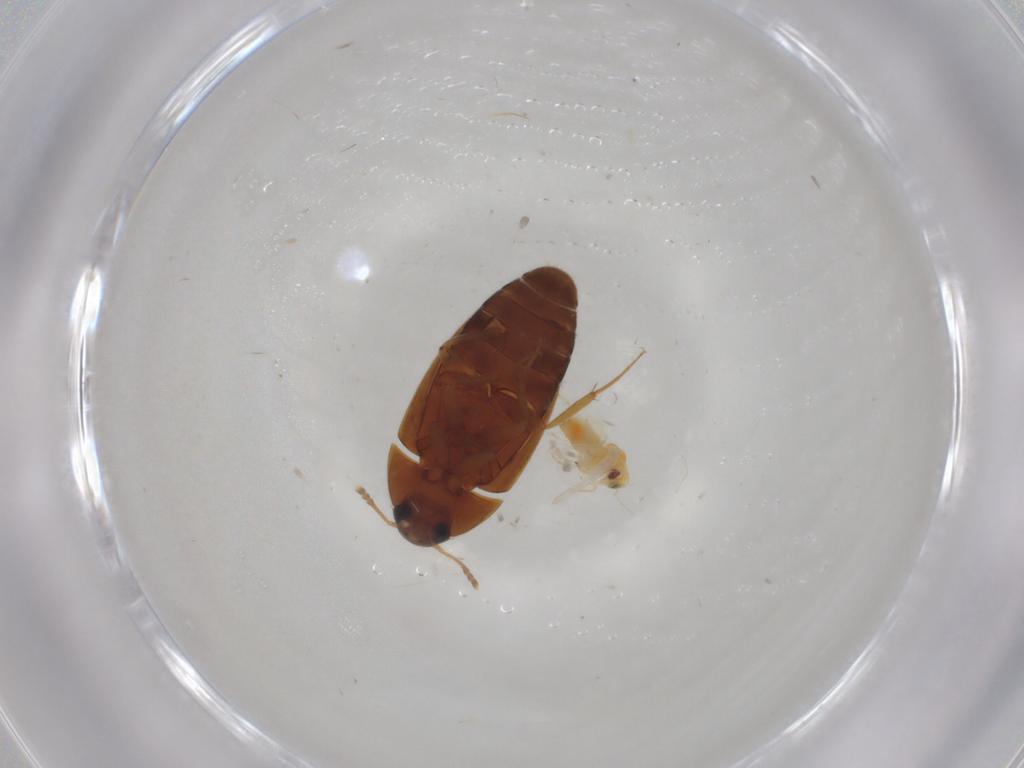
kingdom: Animalia
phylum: Arthropoda
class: Insecta
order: Coleoptera
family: Mycetophagidae
